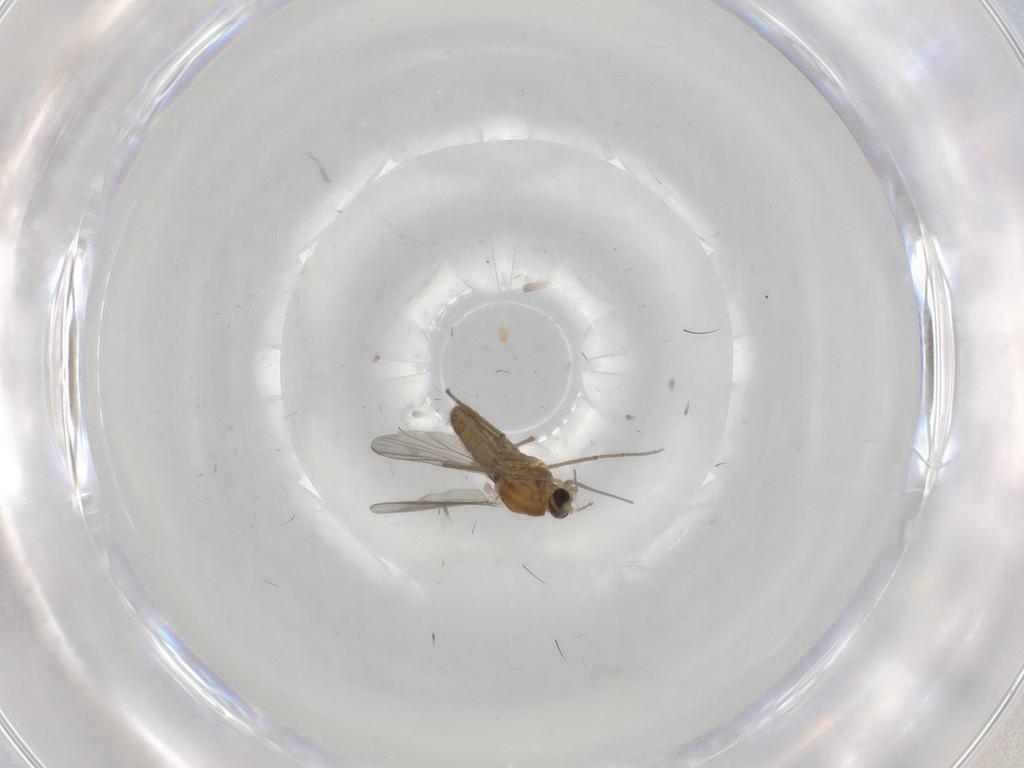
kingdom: Animalia
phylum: Arthropoda
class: Insecta
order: Diptera
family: Chironomidae
